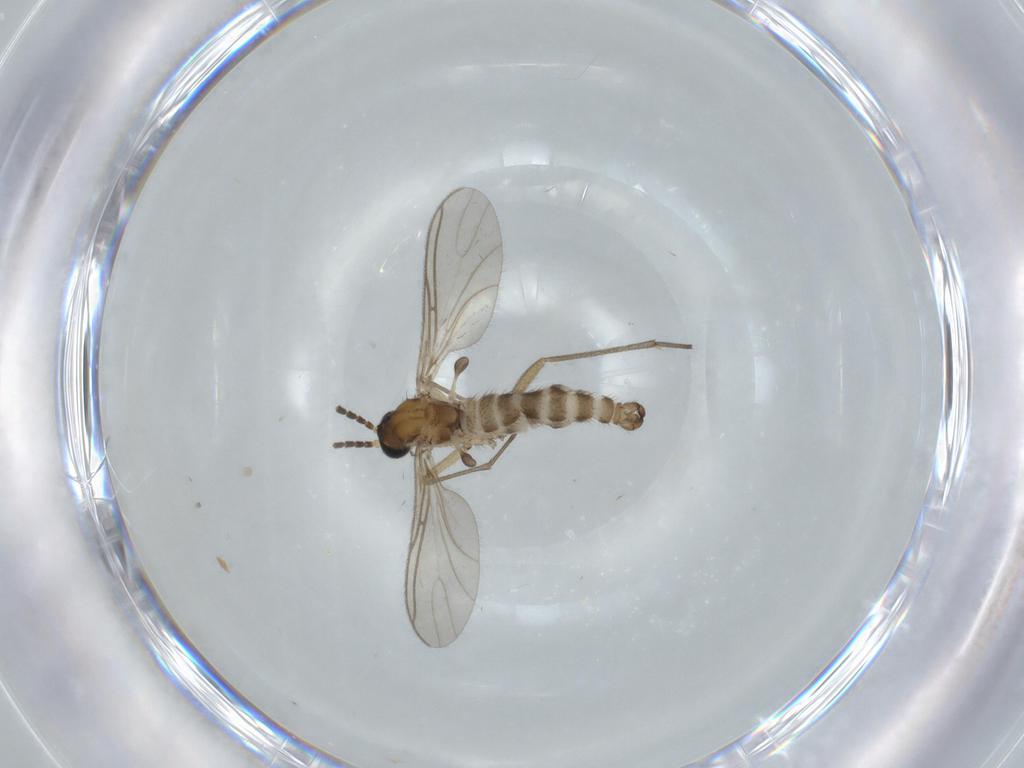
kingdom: Animalia
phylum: Arthropoda
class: Insecta
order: Diptera
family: Sciaridae
